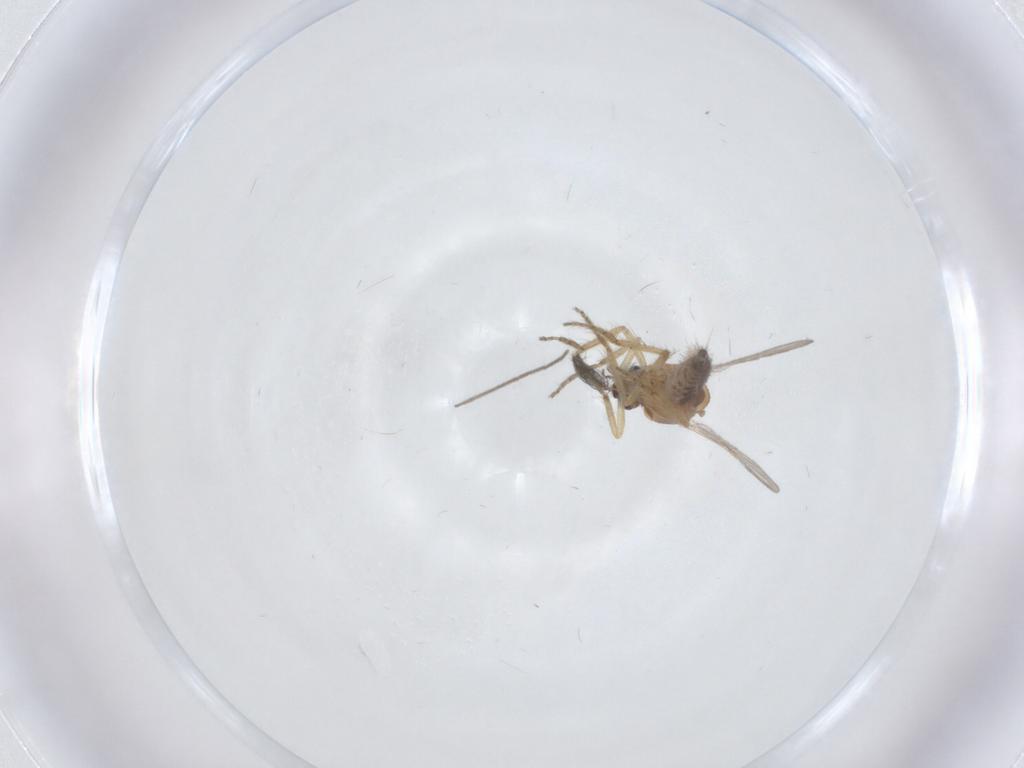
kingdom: Animalia
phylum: Arthropoda
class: Insecta
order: Diptera
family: Ceratopogonidae
